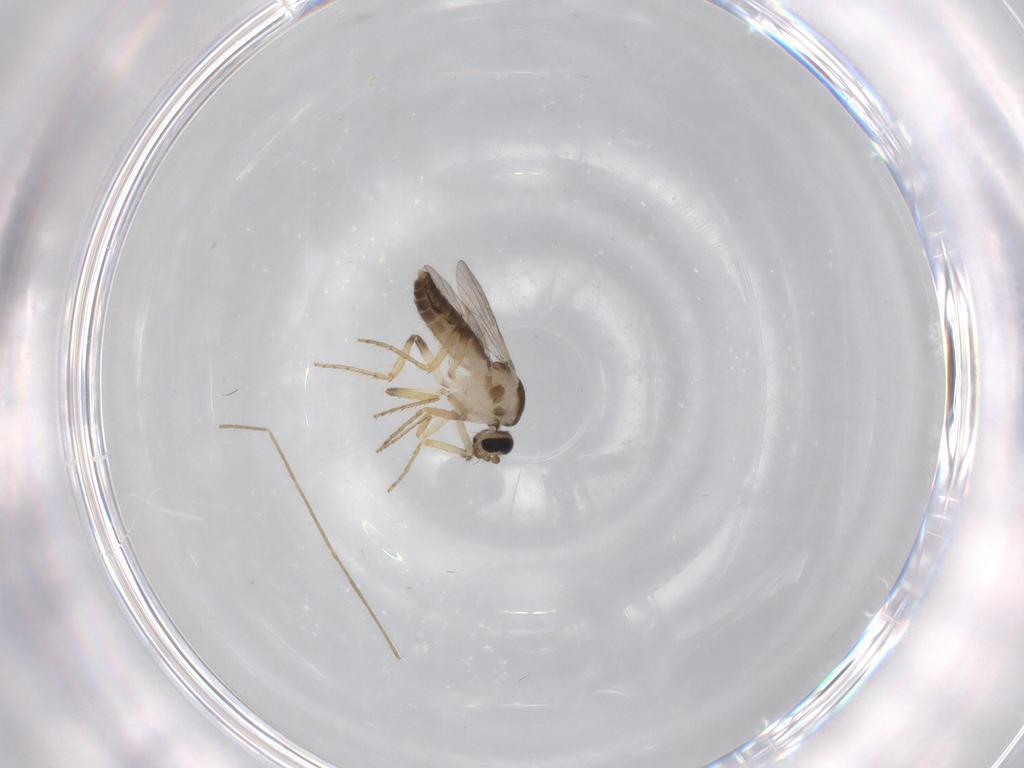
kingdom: Animalia
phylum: Arthropoda
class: Insecta
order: Diptera
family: Ceratopogonidae
